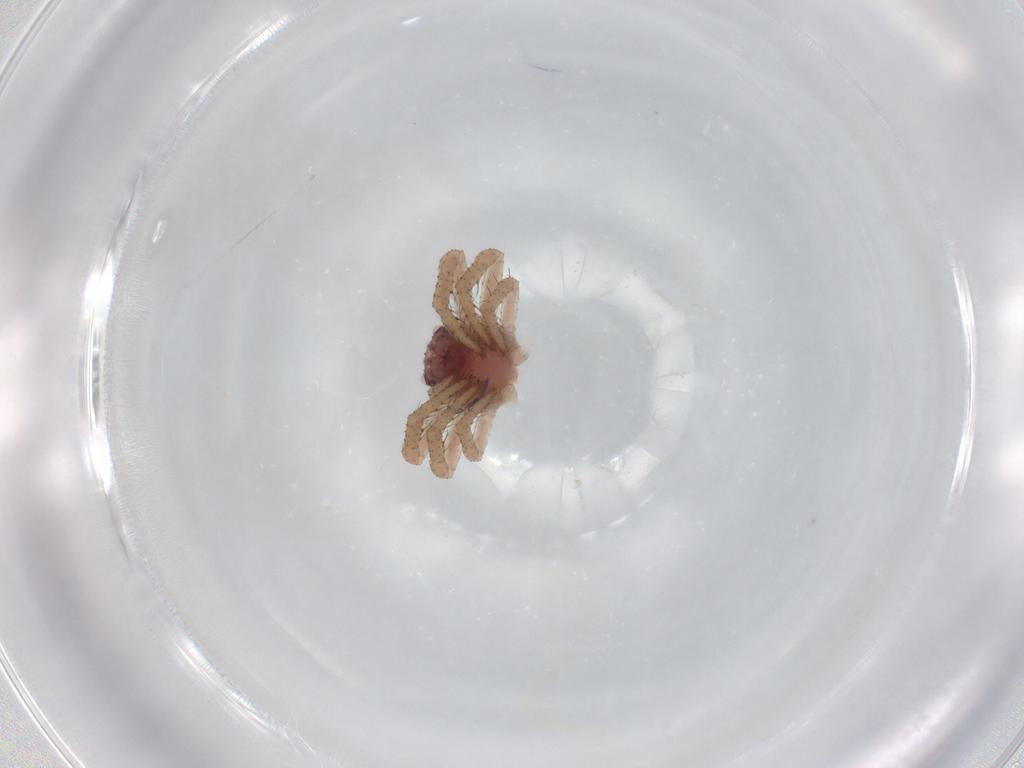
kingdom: Animalia
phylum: Arthropoda
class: Arachnida
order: Araneae
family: Thomisidae
